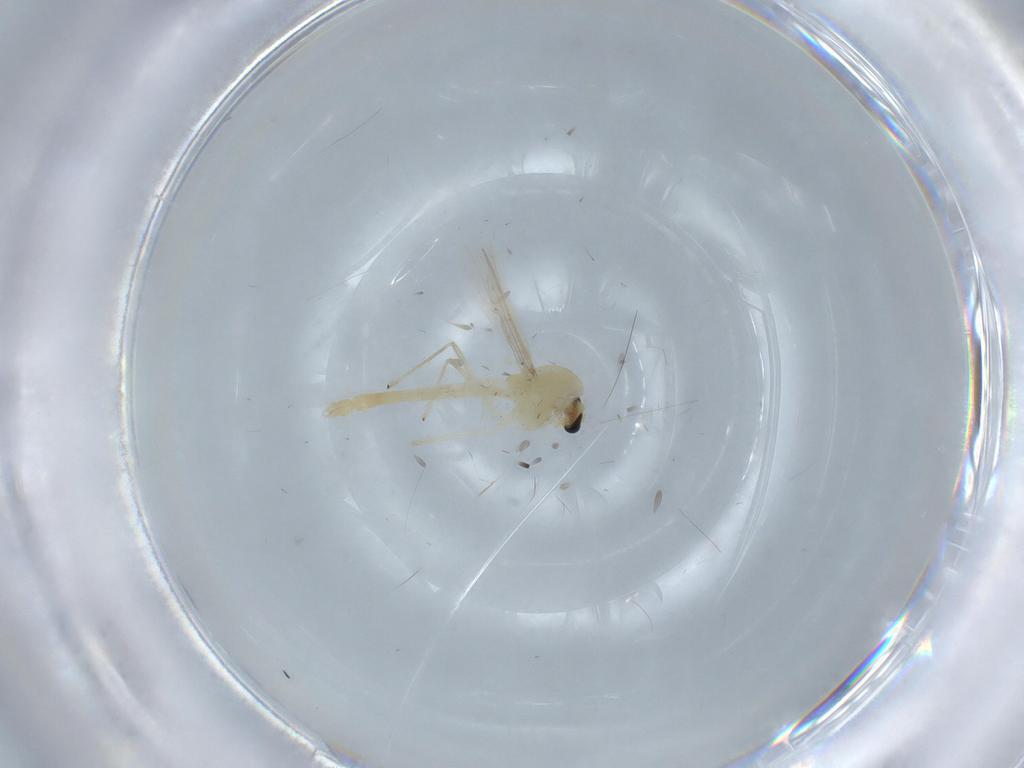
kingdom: Animalia
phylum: Arthropoda
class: Insecta
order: Diptera
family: Chironomidae
